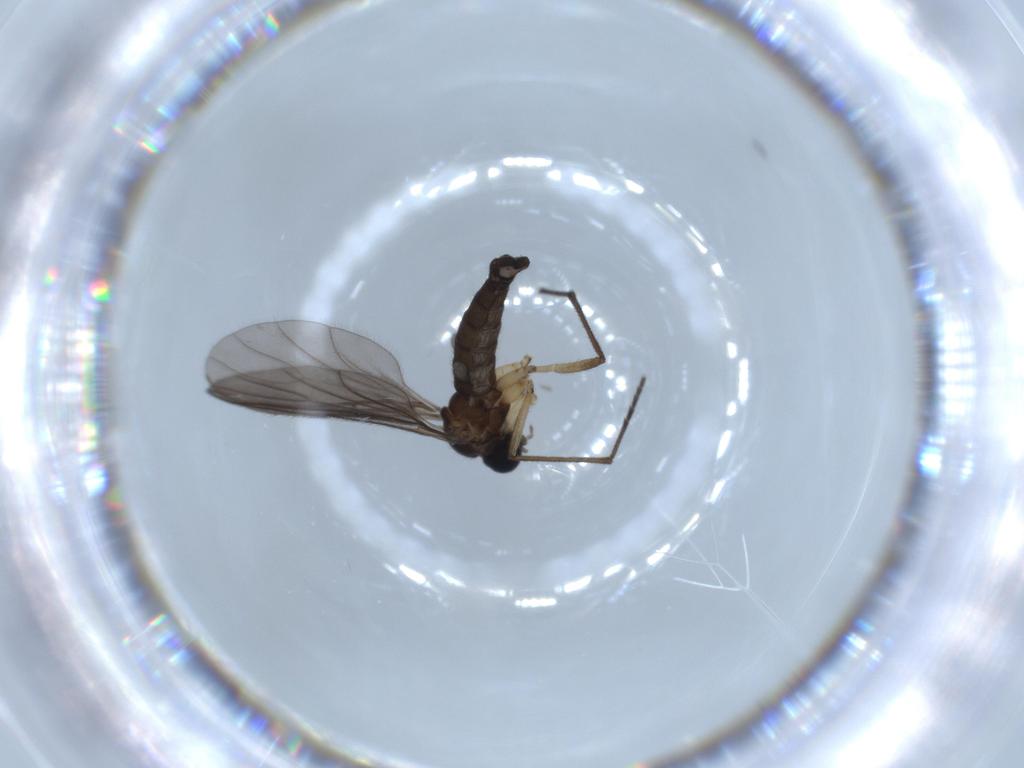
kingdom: Animalia
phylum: Arthropoda
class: Insecta
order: Diptera
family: Sciaridae
